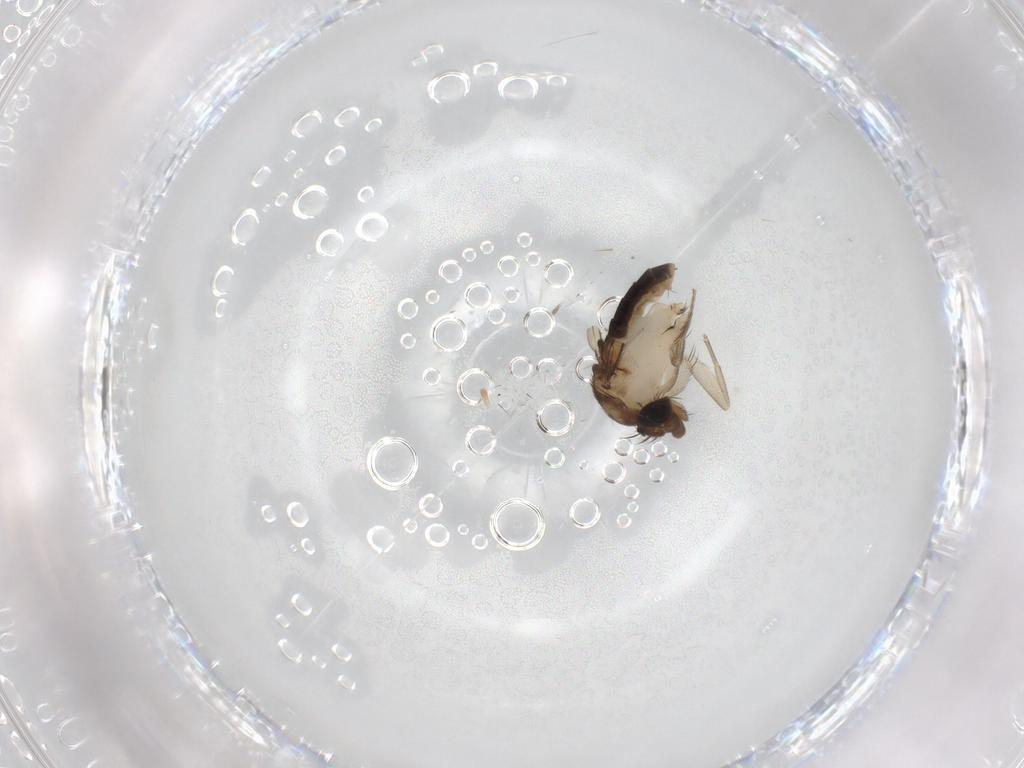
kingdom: Animalia
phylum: Arthropoda
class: Insecta
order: Diptera
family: Phoridae
